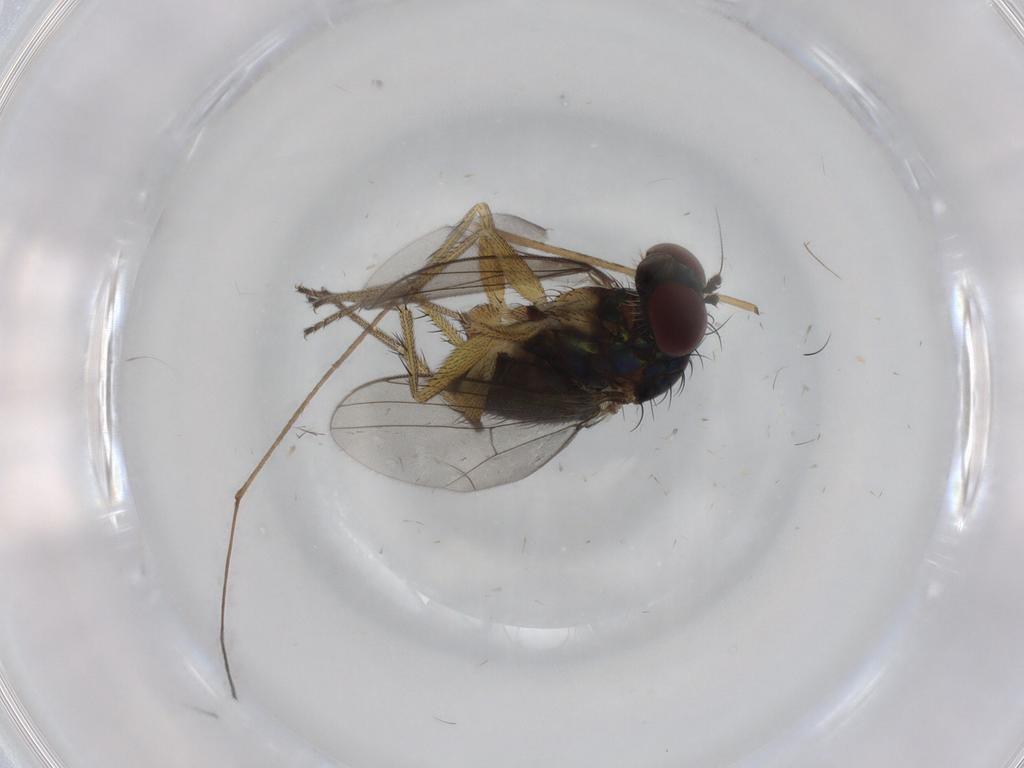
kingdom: Animalia
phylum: Arthropoda
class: Insecta
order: Diptera
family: Dolichopodidae
